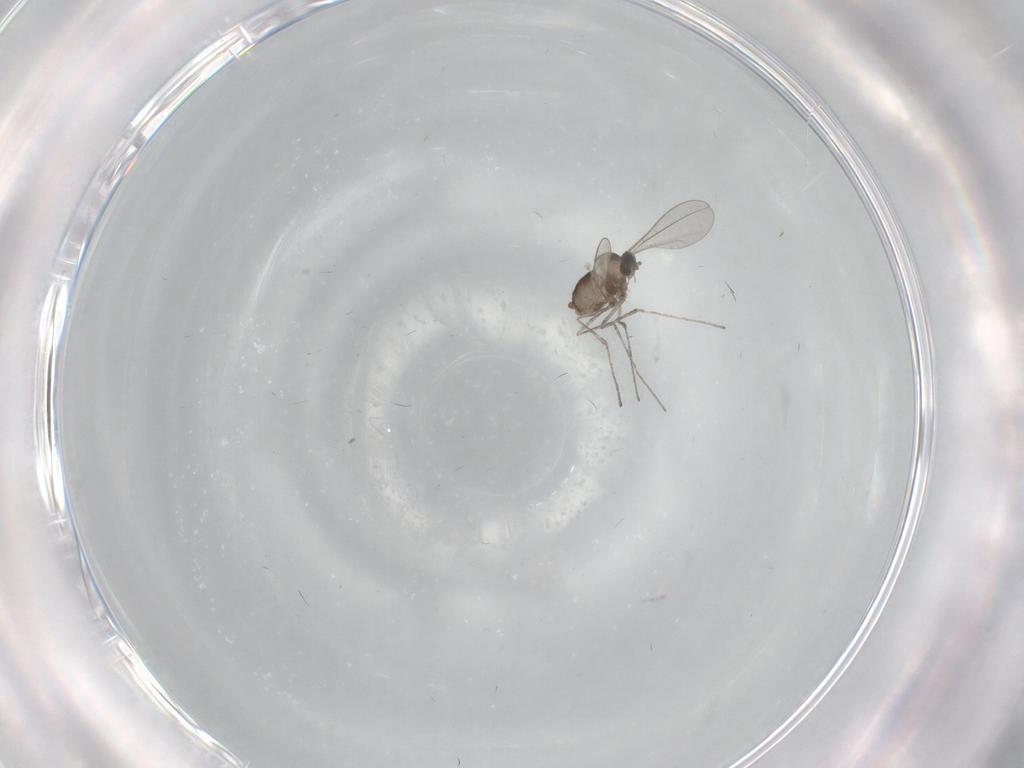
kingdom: Animalia
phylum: Arthropoda
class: Insecta
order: Diptera
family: Cecidomyiidae
